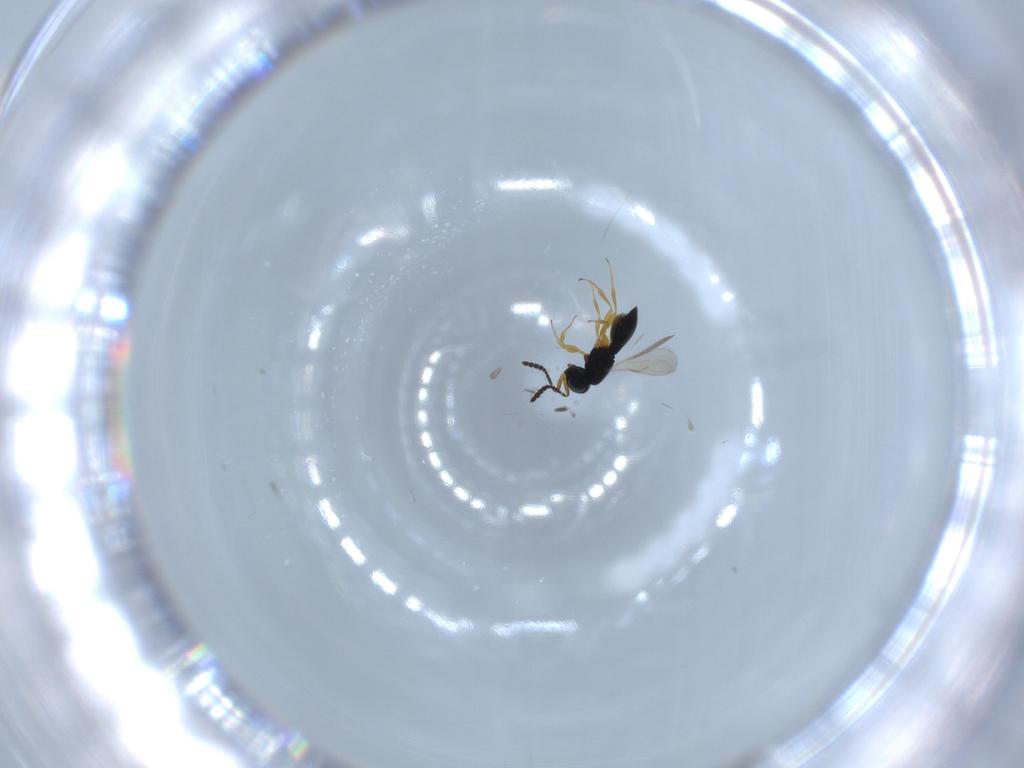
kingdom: Animalia
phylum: Arthropoda
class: Insecta
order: Hymenoptera
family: Scelionidae
